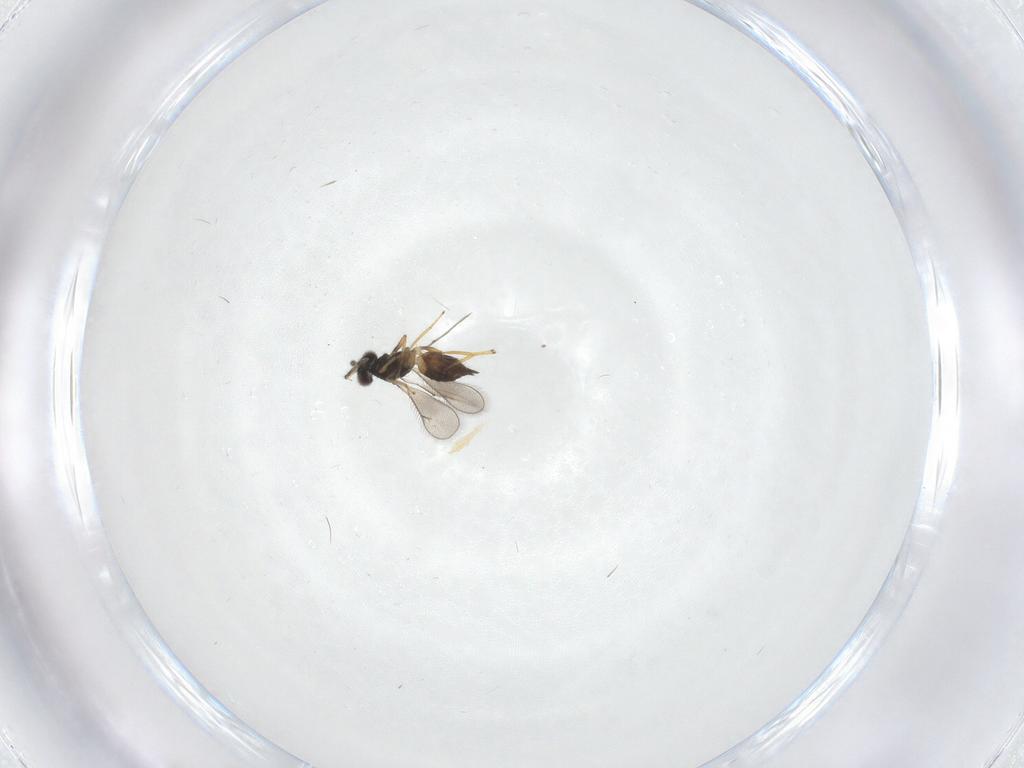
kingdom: Animalia
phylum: Arthropoda
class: Insecta
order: Hymenoptera
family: Eulophidae
